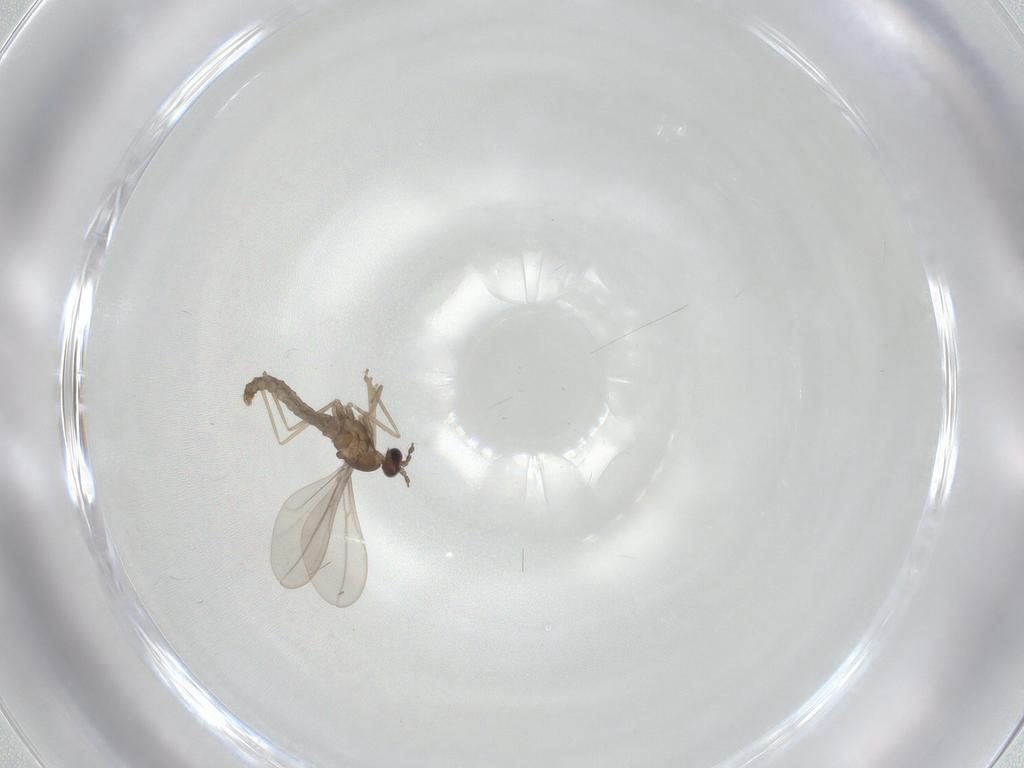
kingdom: Animalia
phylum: Arthropoda
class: Insecta
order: Diptera
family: Cecidomyiidae
